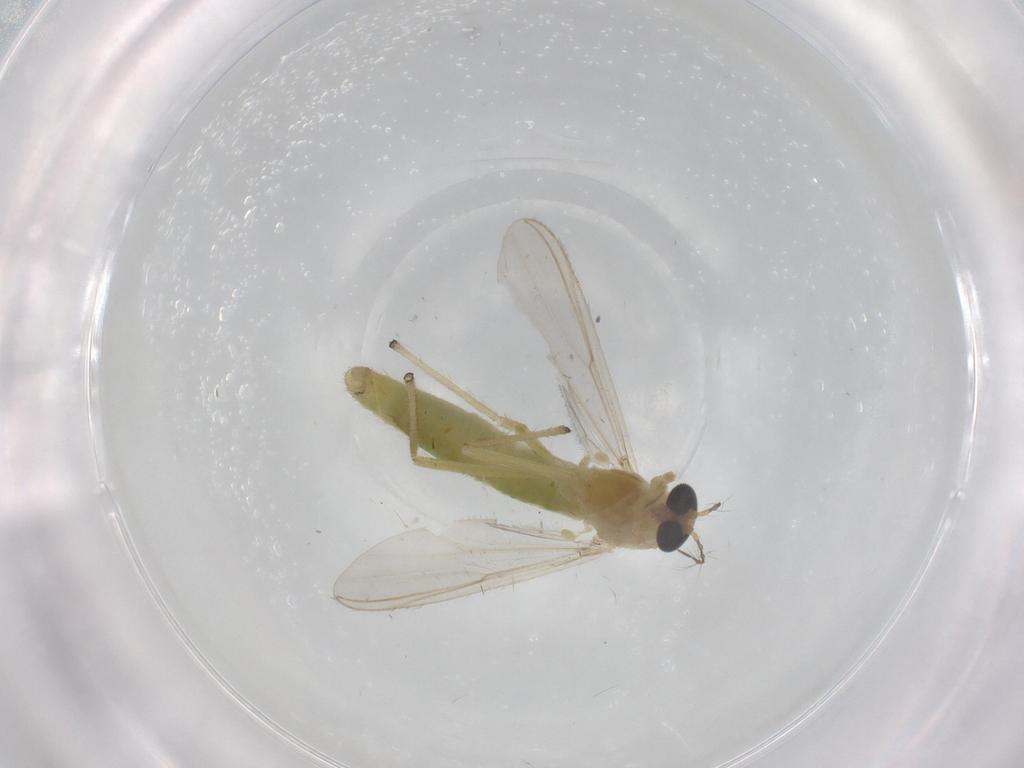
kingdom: Animalia
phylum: Arthropoda
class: Insecta
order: Diptera
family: Chironomidae
